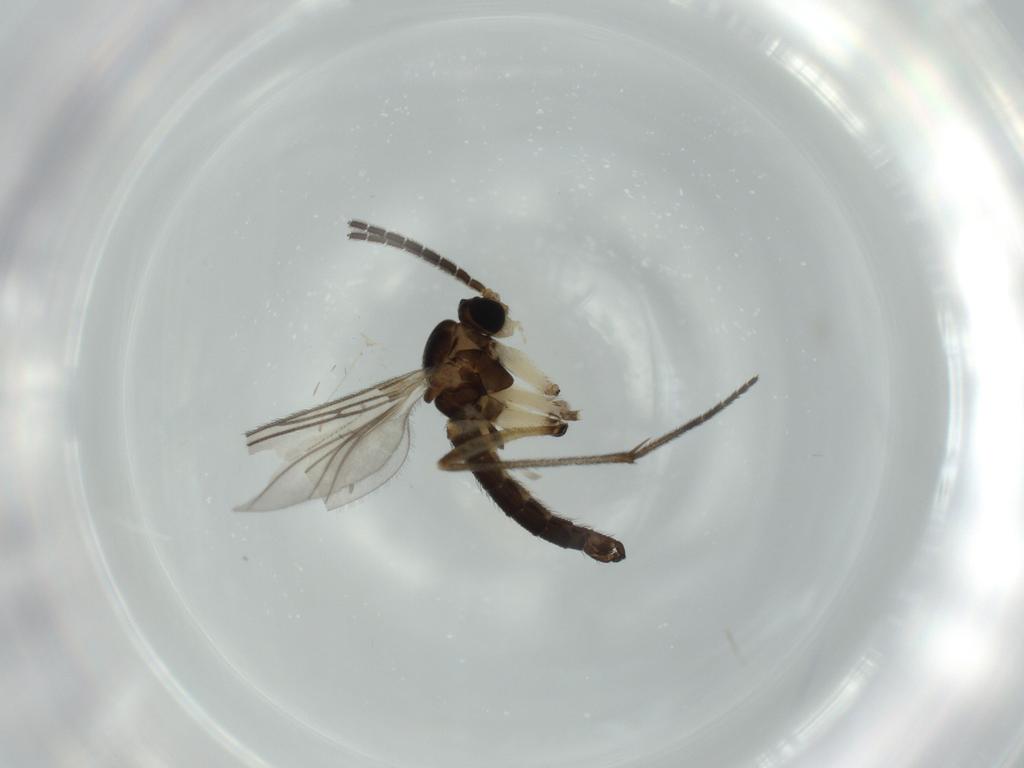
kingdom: Animalia
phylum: Arthropoda
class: Insecta
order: Diptera
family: Sciaridae
